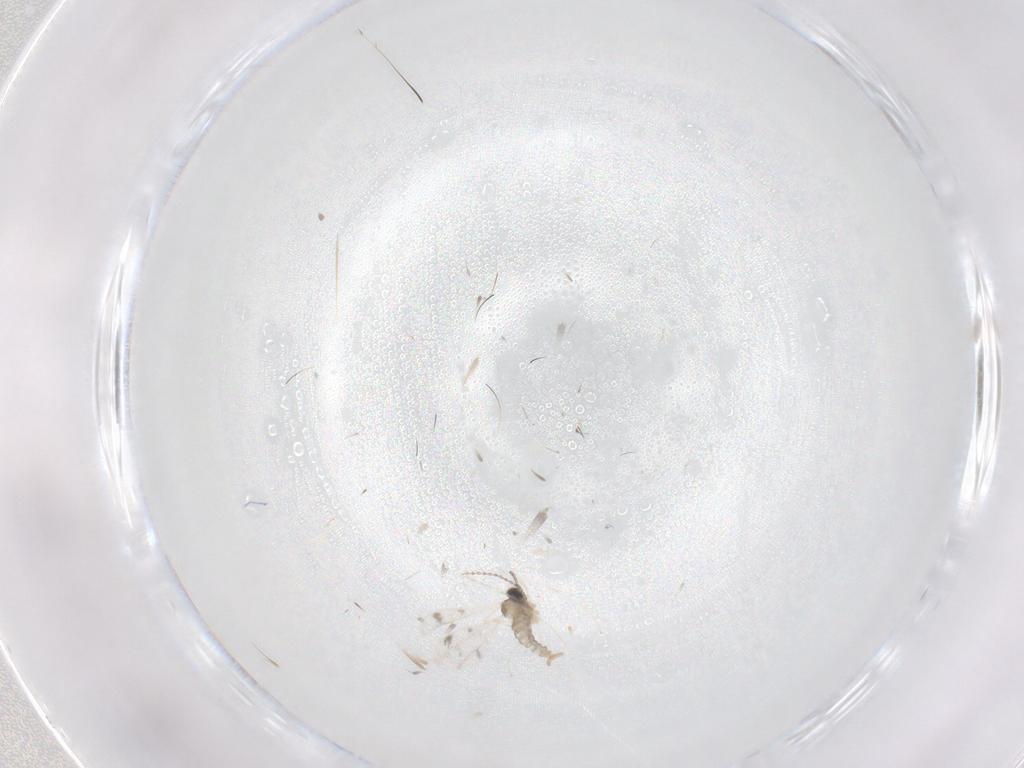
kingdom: Animalia
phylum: Arthropoda
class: Insecta
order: Diptera
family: Cecidomyiidae
